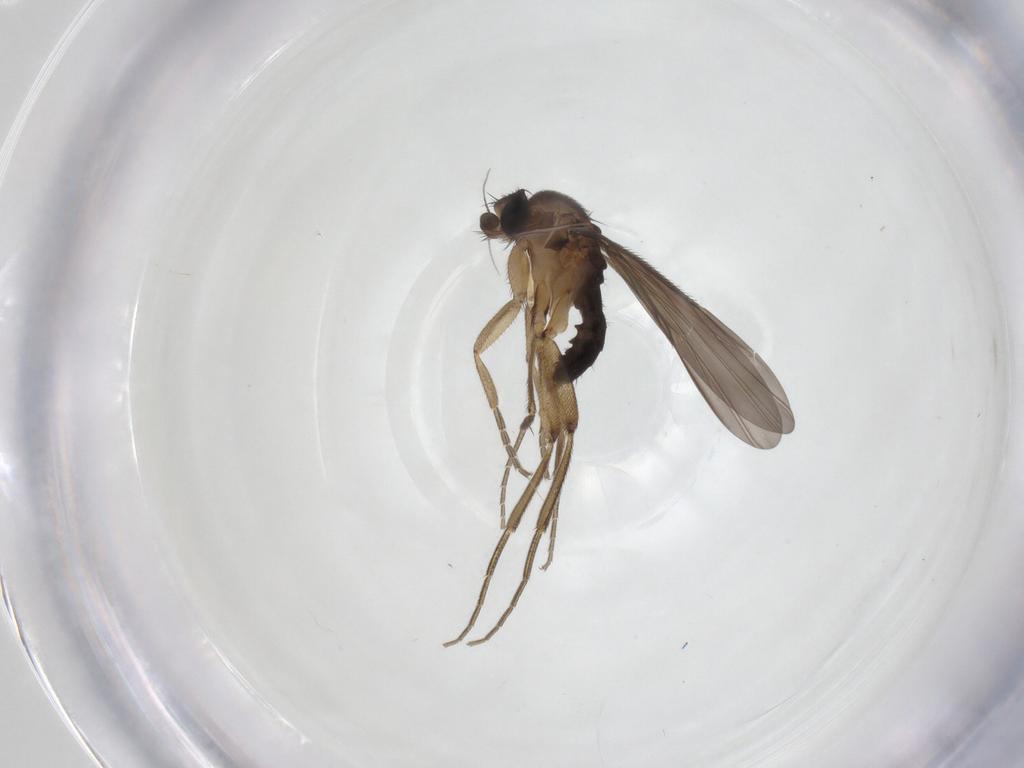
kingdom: Animalia
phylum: Arthropoda
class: Insecta
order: Diptera
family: Phoridae
